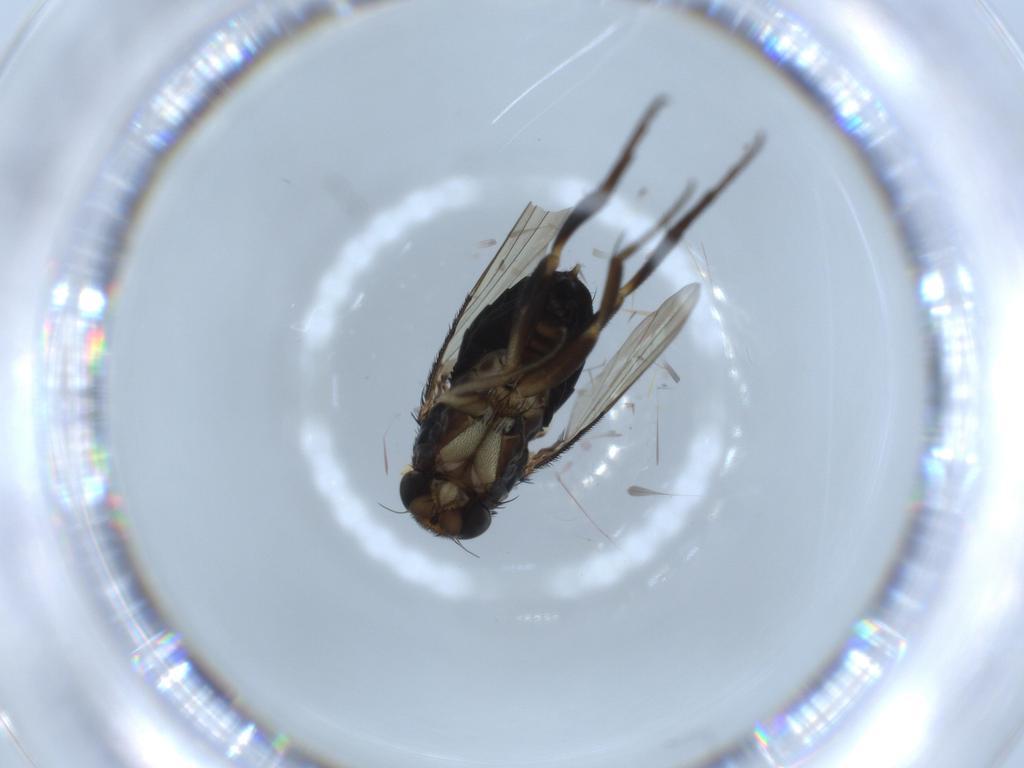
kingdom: Animalia
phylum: Arthropoda
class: Insecta
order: Diptera
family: Phoridae
